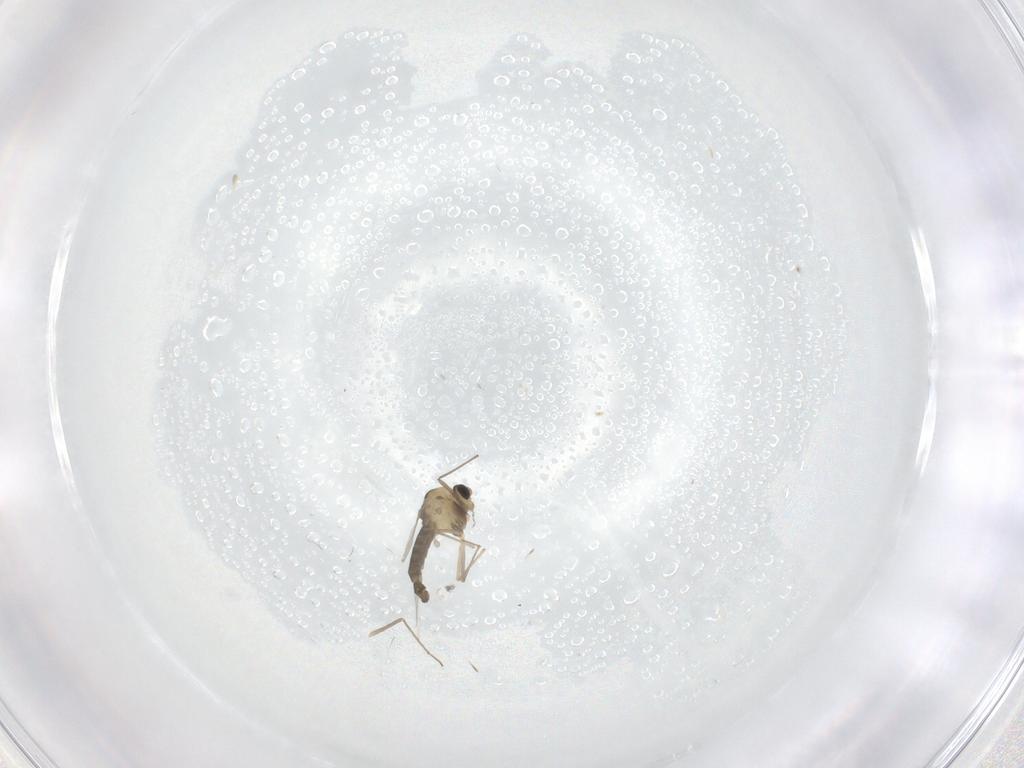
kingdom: Animalia
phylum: Arthropoda
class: Insecta
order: Diptera
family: Chironomidae
